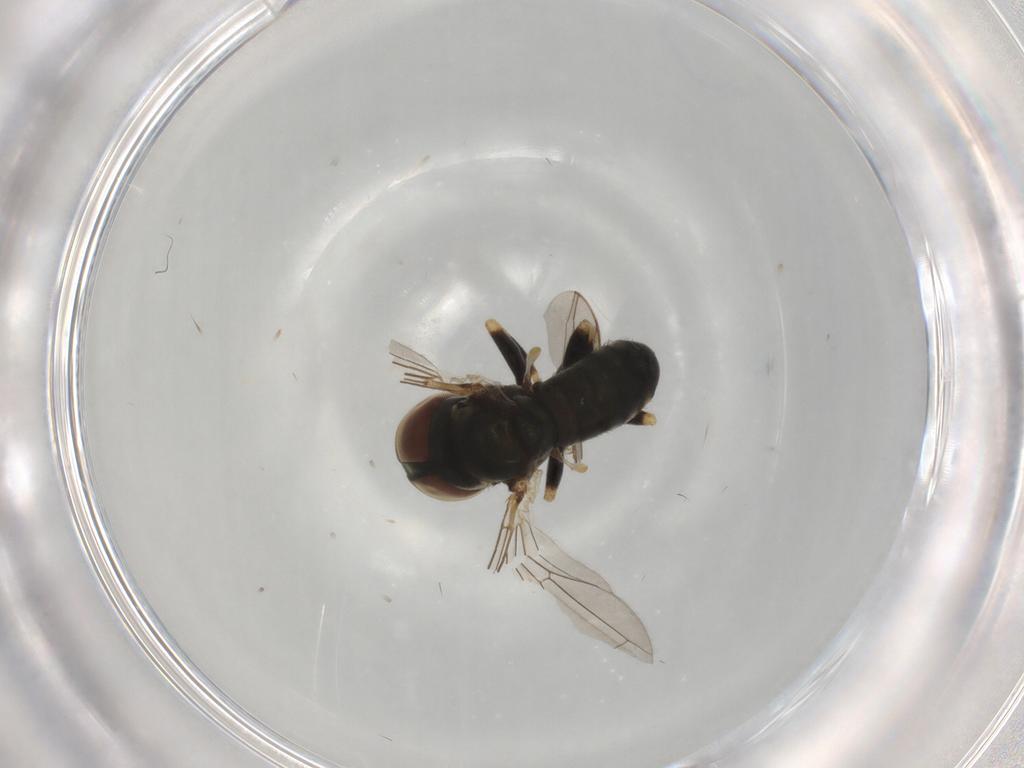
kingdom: Animalia
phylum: Arthropoda
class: Insecta
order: Diptera
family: Pipunculidae
